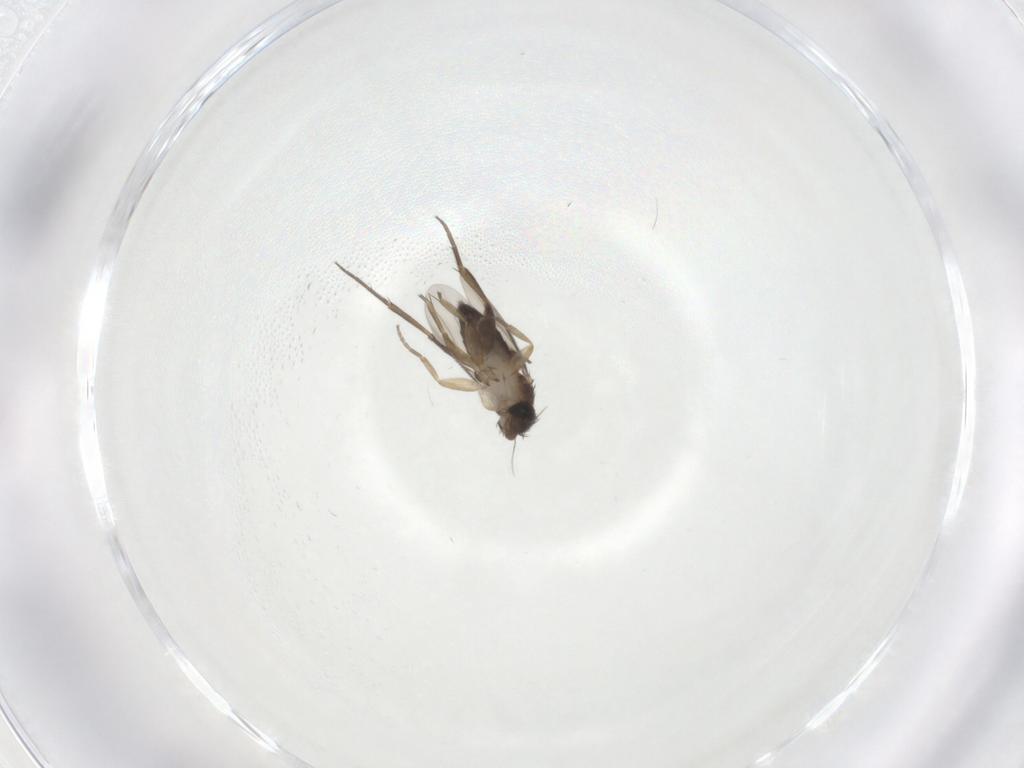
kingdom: Animalia
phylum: Arthropoda
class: Insecta
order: Diptera
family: Phoridae
